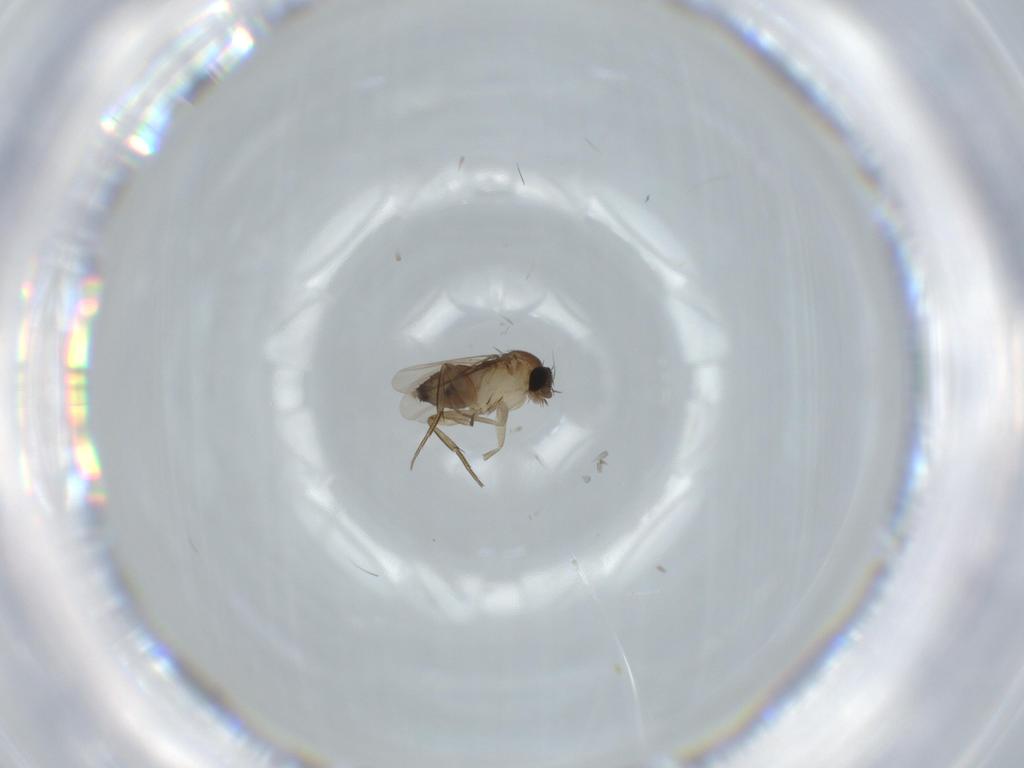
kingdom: Animalia
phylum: Arthropoda
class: Insecta
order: Diptera
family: Phoridae
